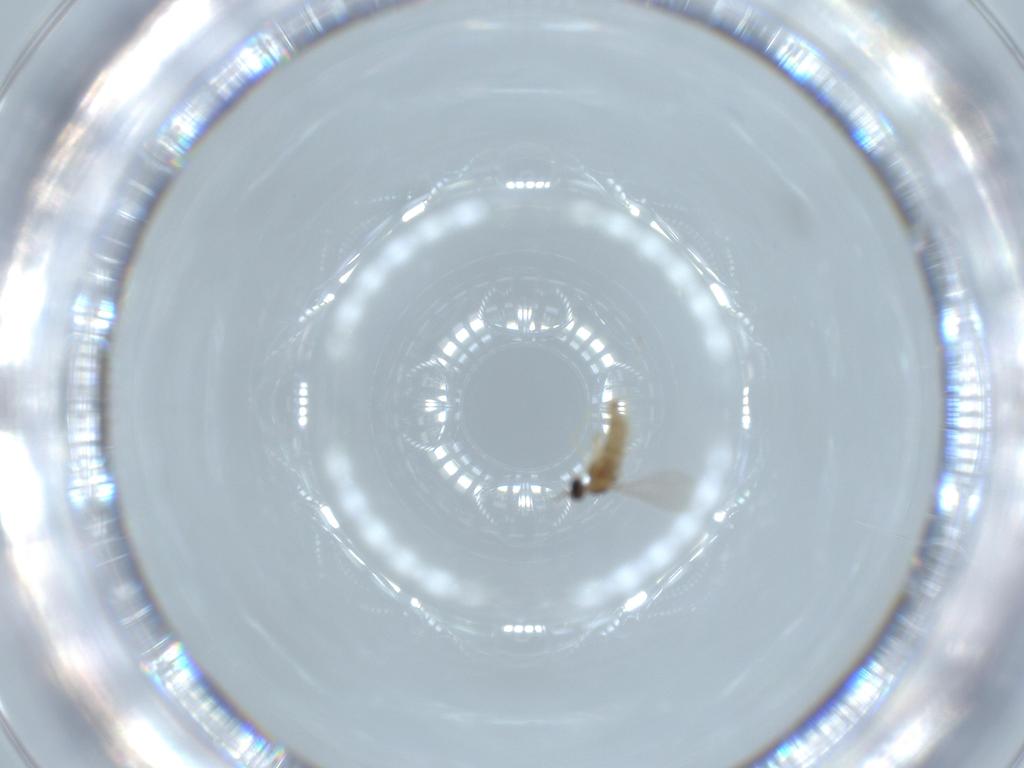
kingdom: Animalia
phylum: Arthropoda
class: Insecta
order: Diptera
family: Cecidomyiidae
